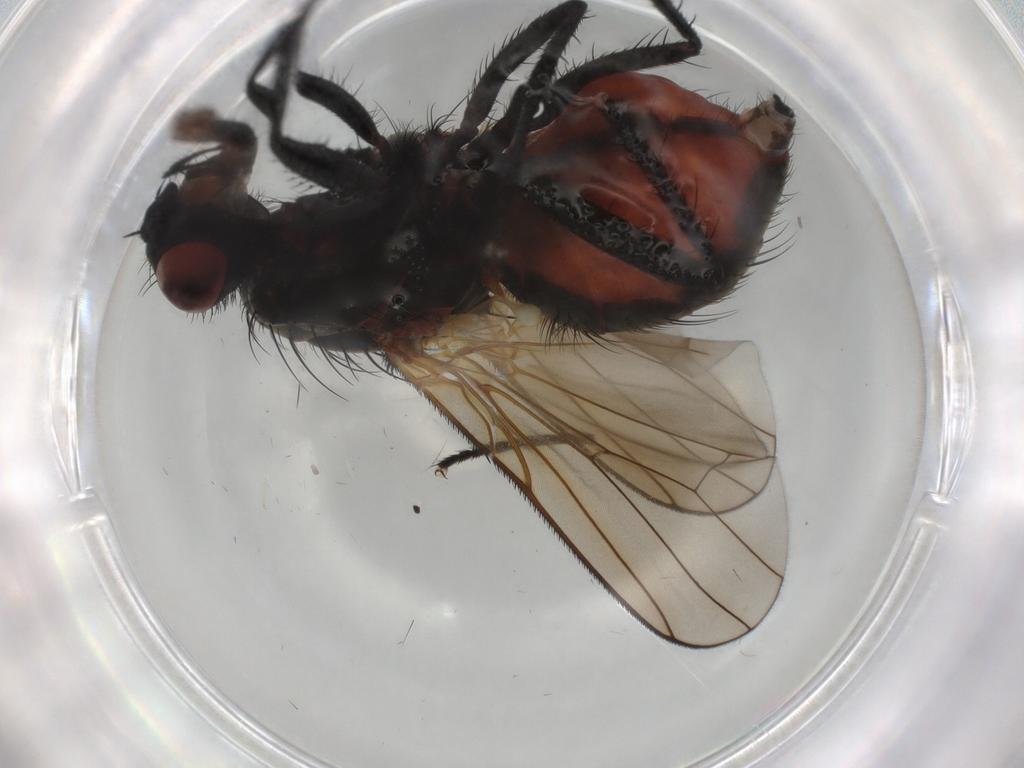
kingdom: Animalia
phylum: Arthropoda
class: Insecta
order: Diptera
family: Anthomyiidae
